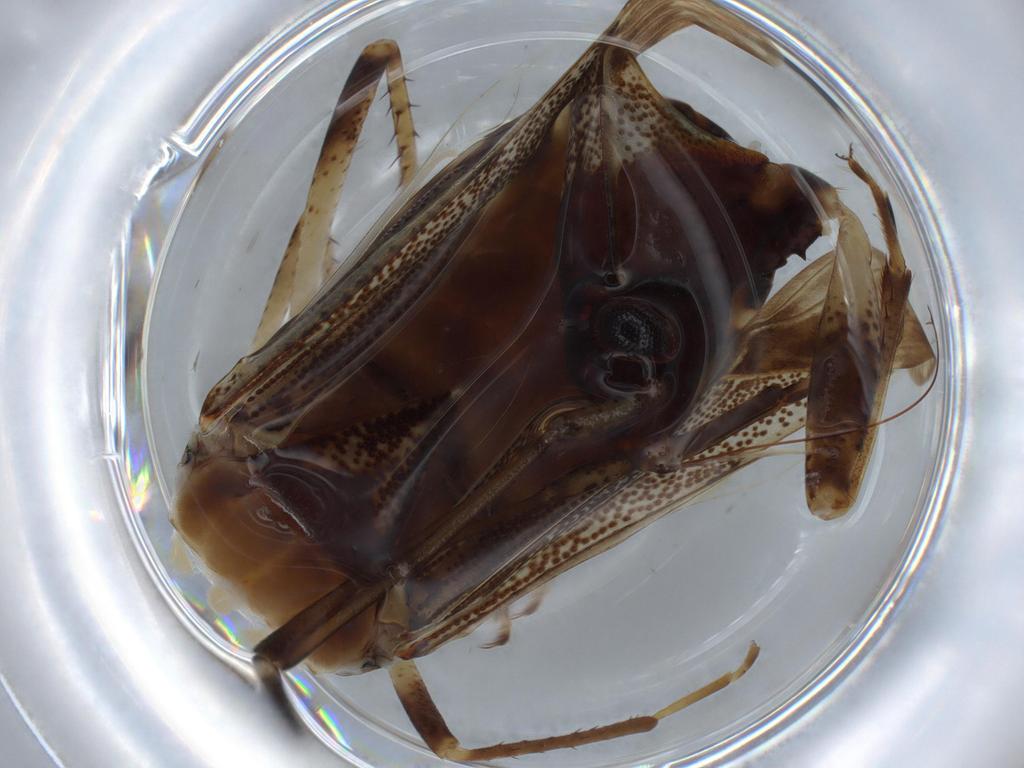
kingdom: Animalia
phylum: Arthropoda
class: Insecta
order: Hemiptera
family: Rhyparochromidae
